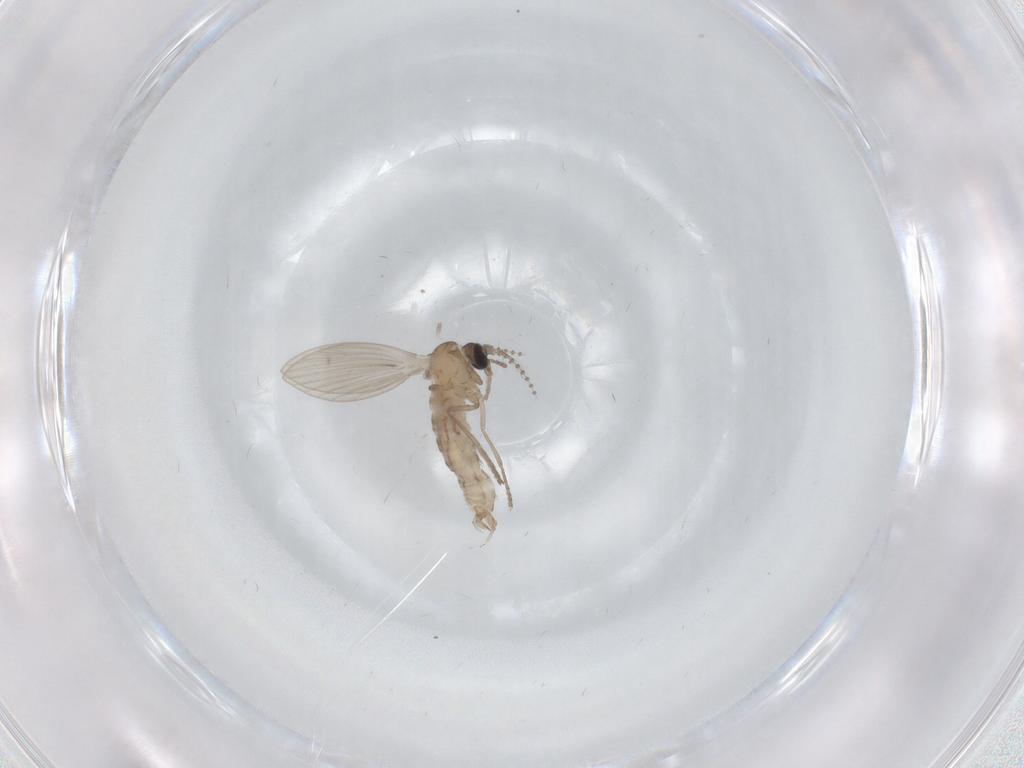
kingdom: Animalia
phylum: Arthropoda
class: Insecta
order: Diptera
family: Psychodidae
